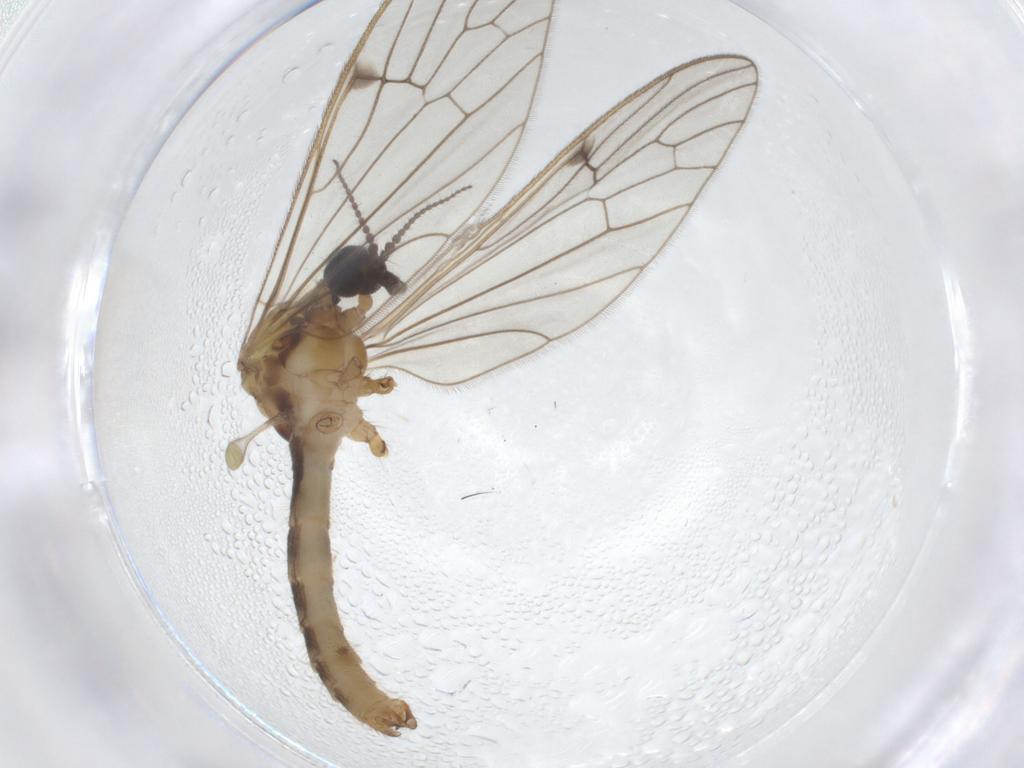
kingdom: Animalia
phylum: Arthropoda
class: Insecta
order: Diptera
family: Limoniidae
